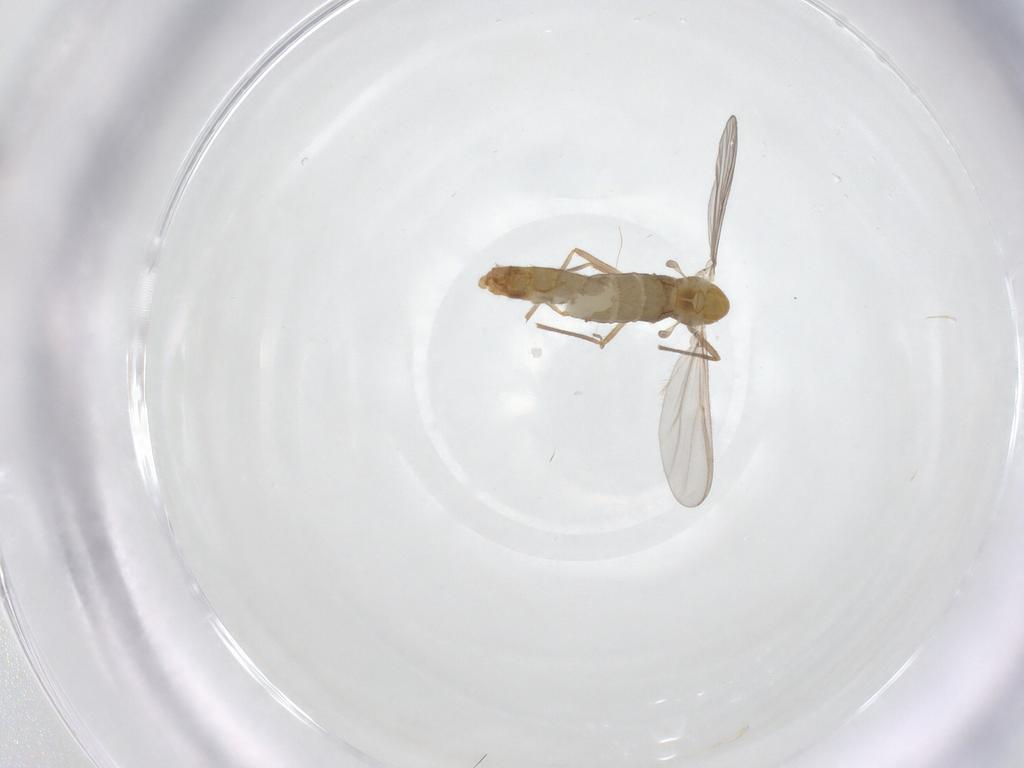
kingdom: Animalia
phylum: Arthropoda
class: Insecta
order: Diptera
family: Chironomidae
